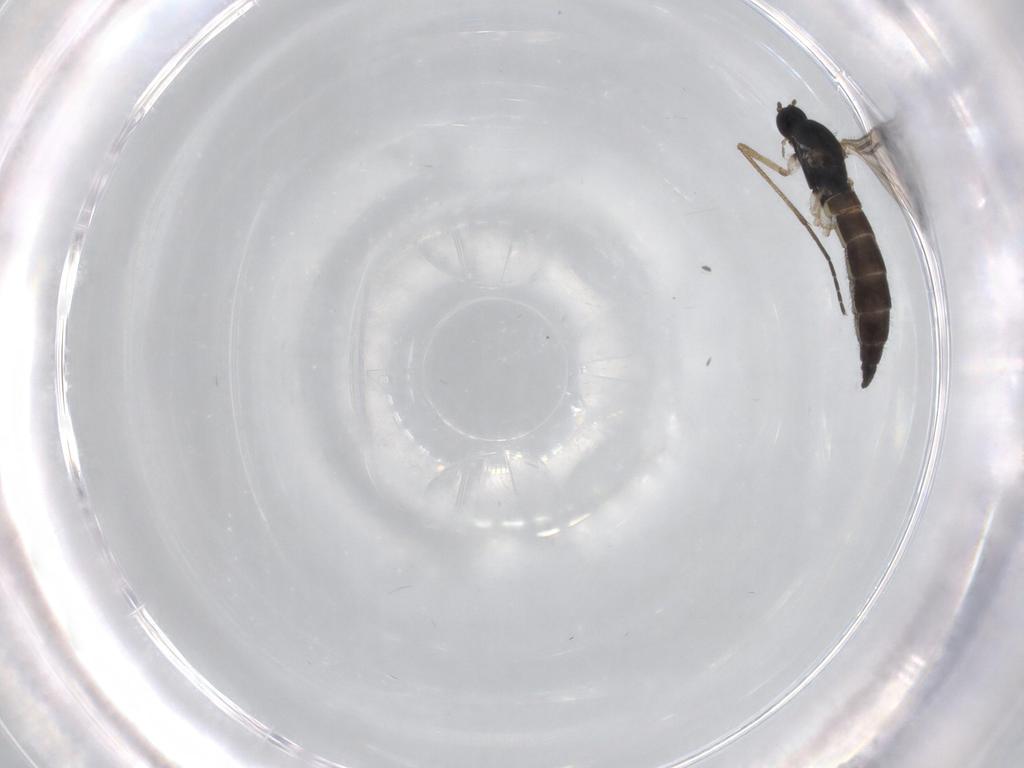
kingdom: Animalia
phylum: Arthropoda
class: Insecta
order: Diptera
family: Sciaridae
